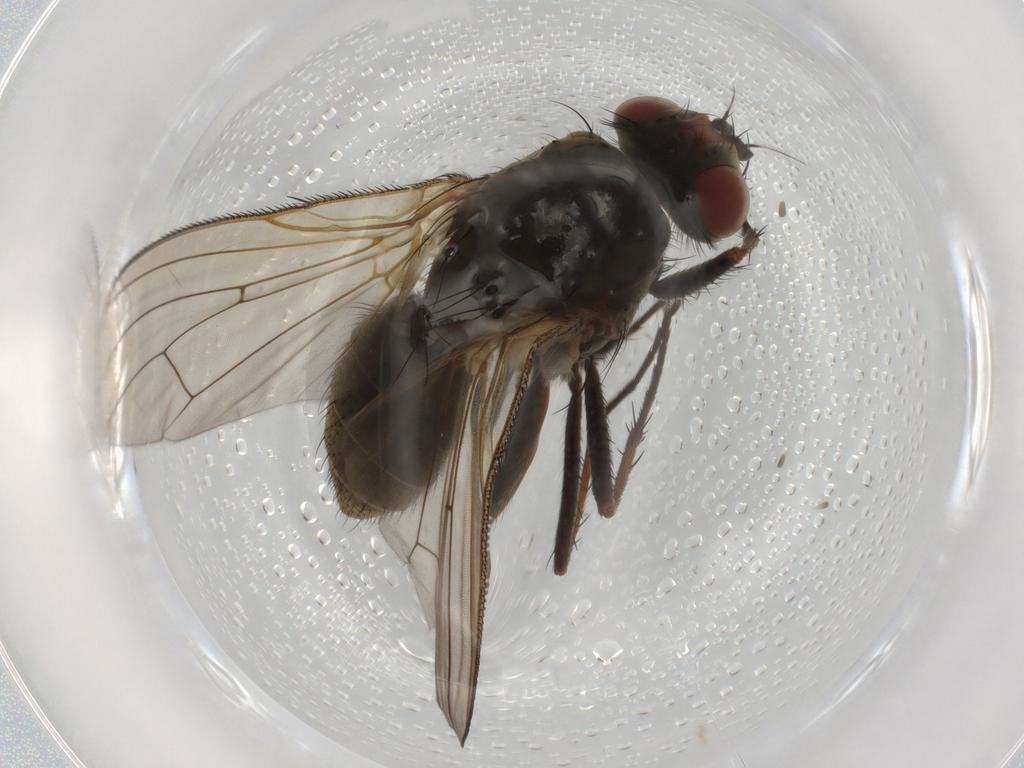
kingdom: Animalia
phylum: Arthropoda
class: Insecta
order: Diptera
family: Anthomyiidae
